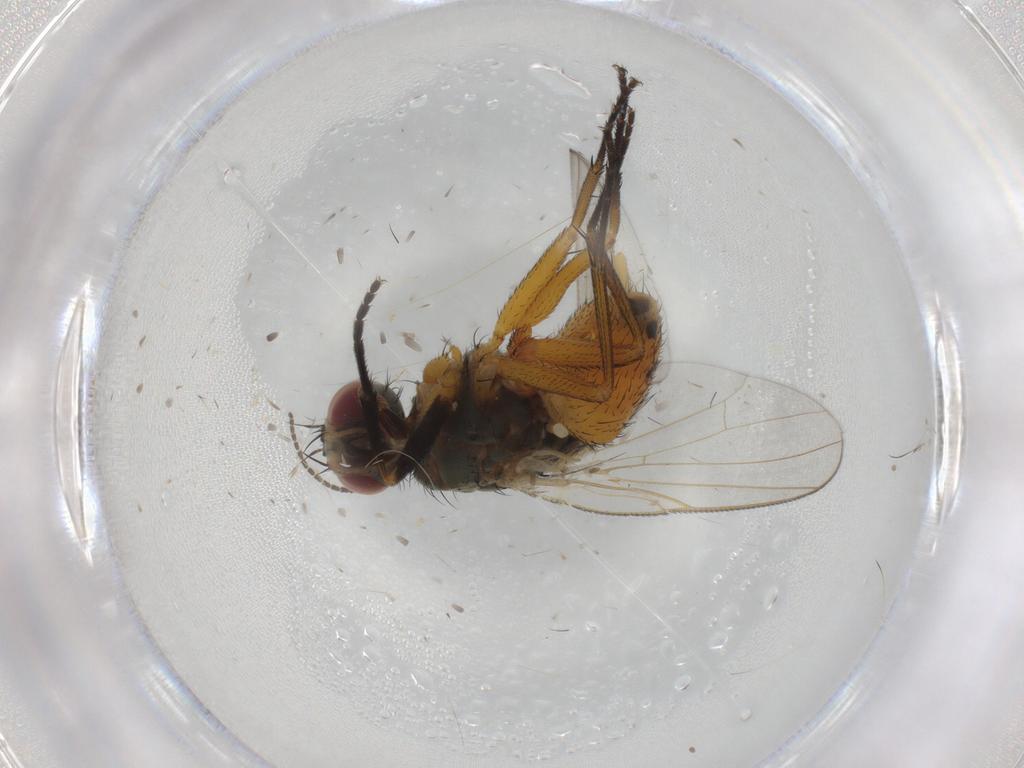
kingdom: Animalia
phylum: Arthropoda
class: Insecta
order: Diptera
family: Muscidae
